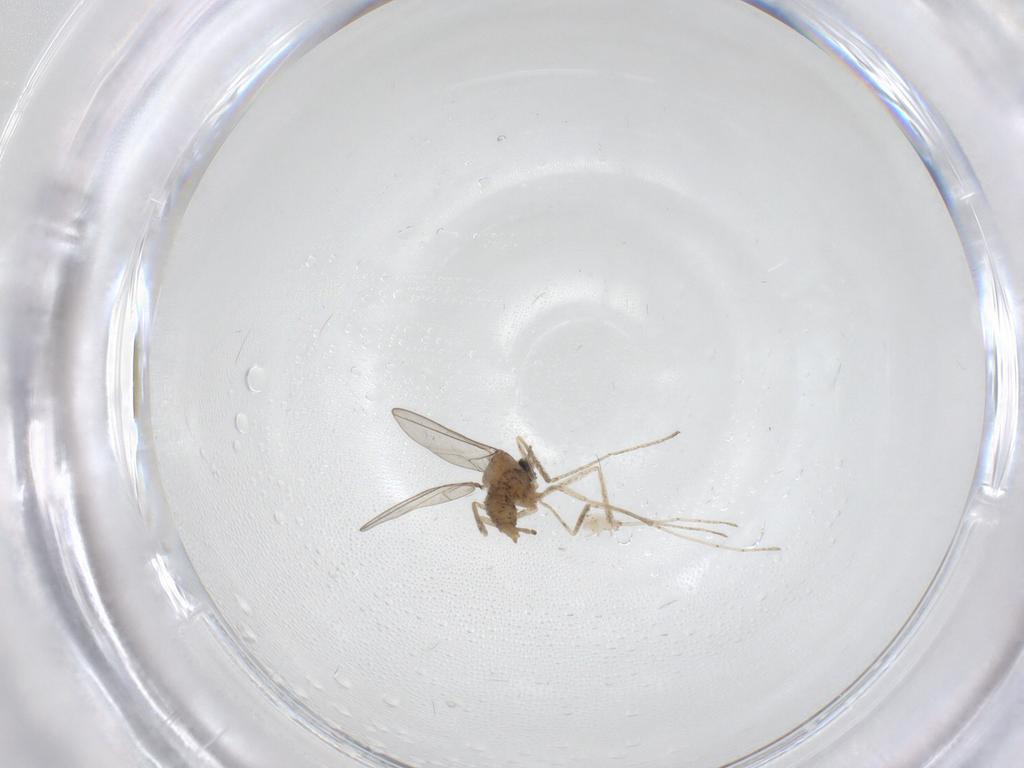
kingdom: Animalia
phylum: Arthropoda
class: Insecta
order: Diptera
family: Cecidomyiidae
